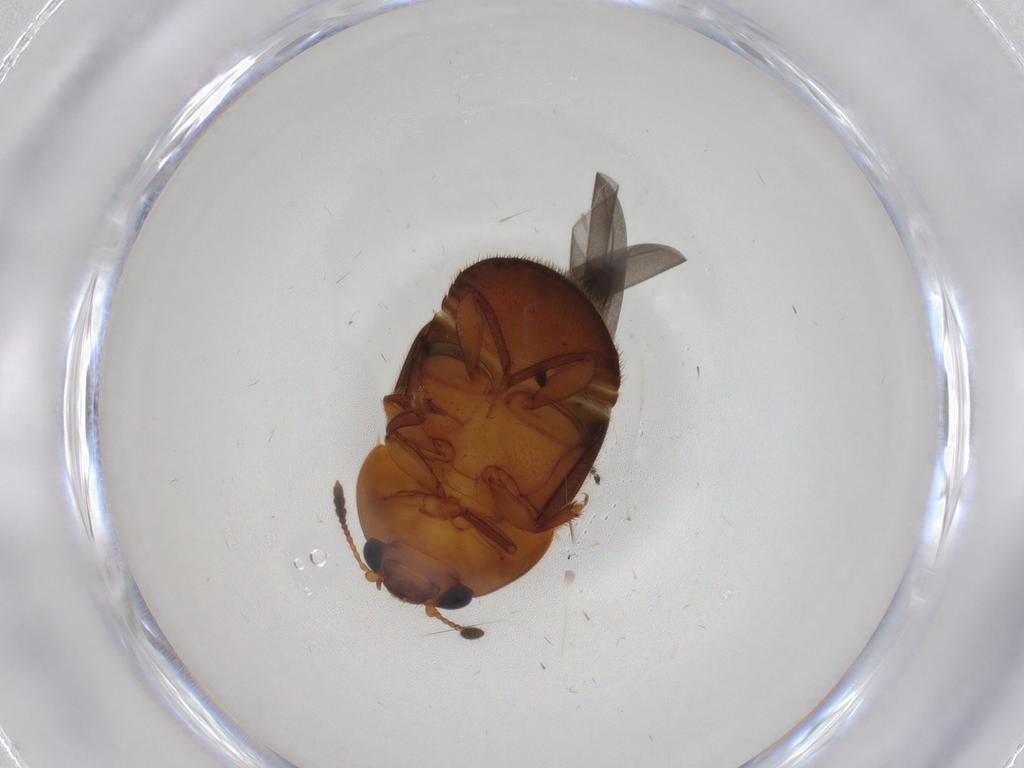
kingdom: Animalia
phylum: Arthropoda
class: Insecta
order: Coleoptera
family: Nitidulidae
